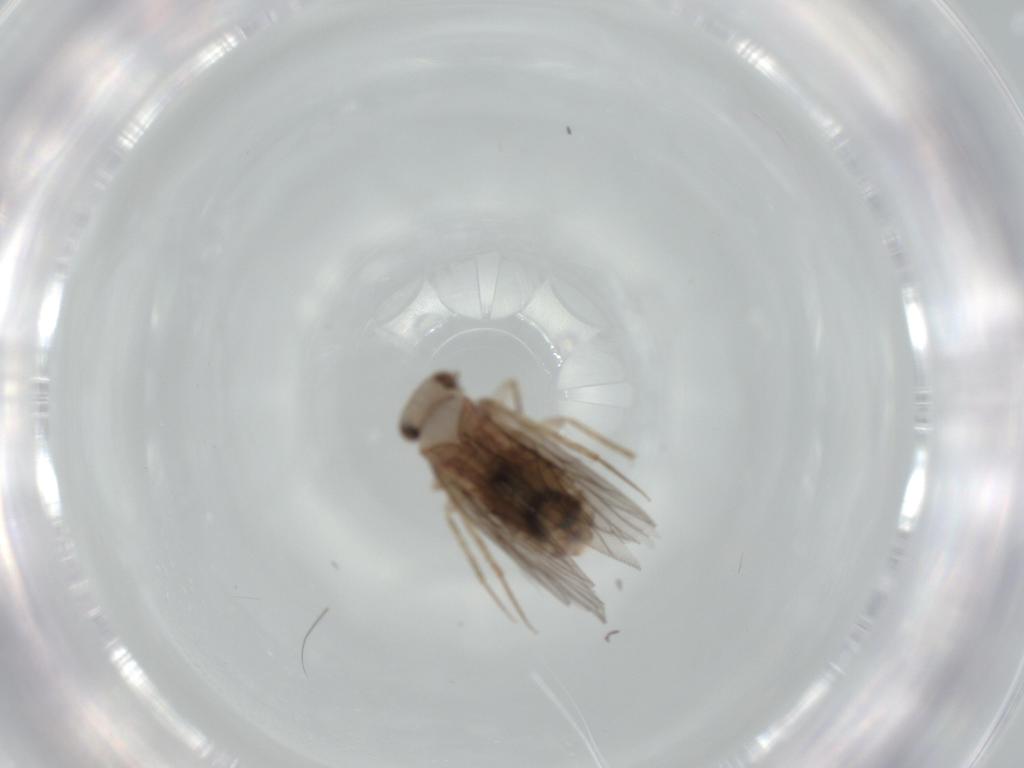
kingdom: Animalia
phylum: Arthropoda
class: Insecta
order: Psocodea
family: Lepidopsocidae
